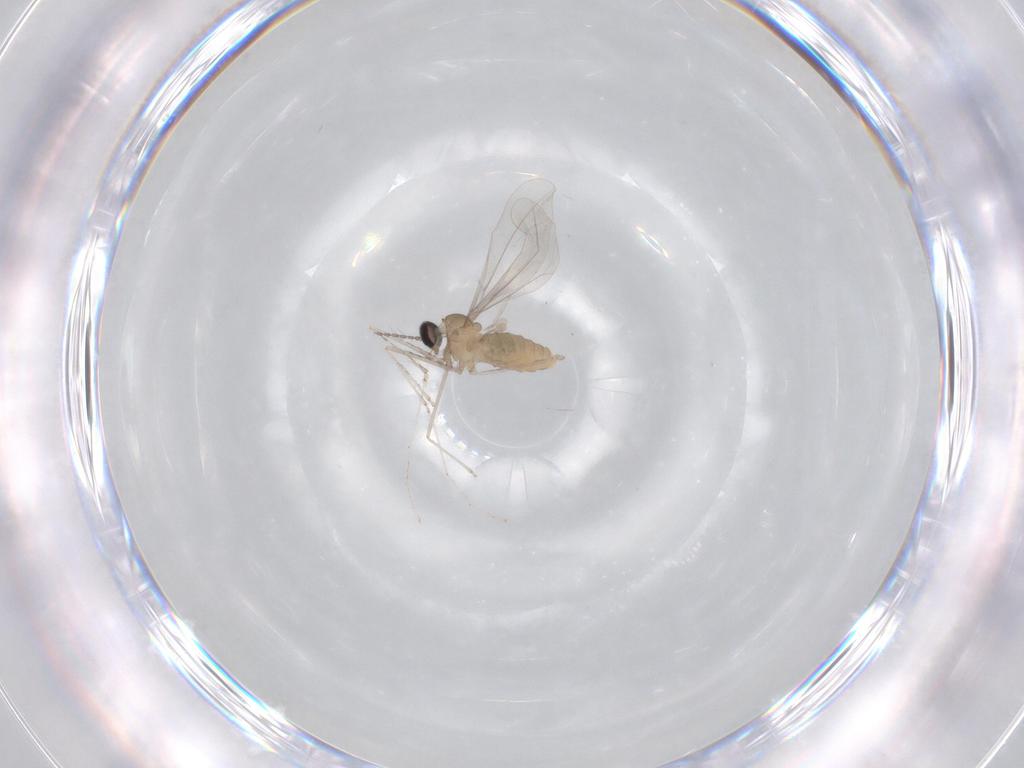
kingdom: Animalia
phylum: Arthropoda
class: Insecta
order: Diptera
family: Cecidomyiidae
